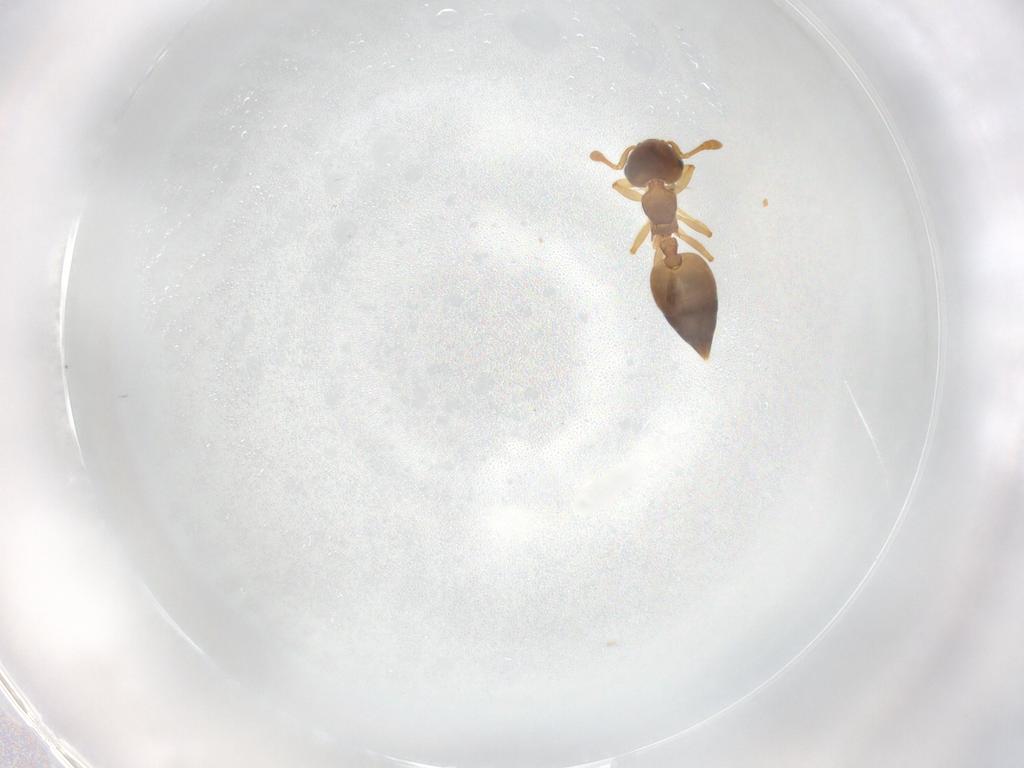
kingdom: Animalia
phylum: Arthropoda
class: Insecta
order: Hymenoptera
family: Formicidae
